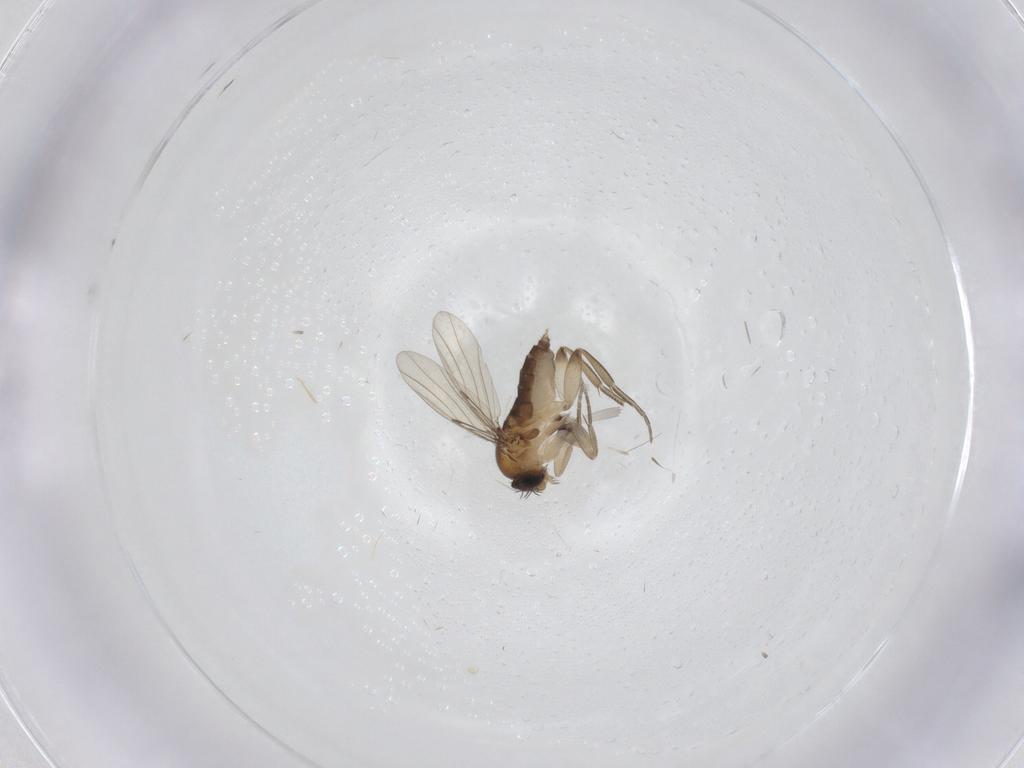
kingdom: Animalia
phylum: Arthropoda
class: Insecta
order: Diptera
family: Phoridae
